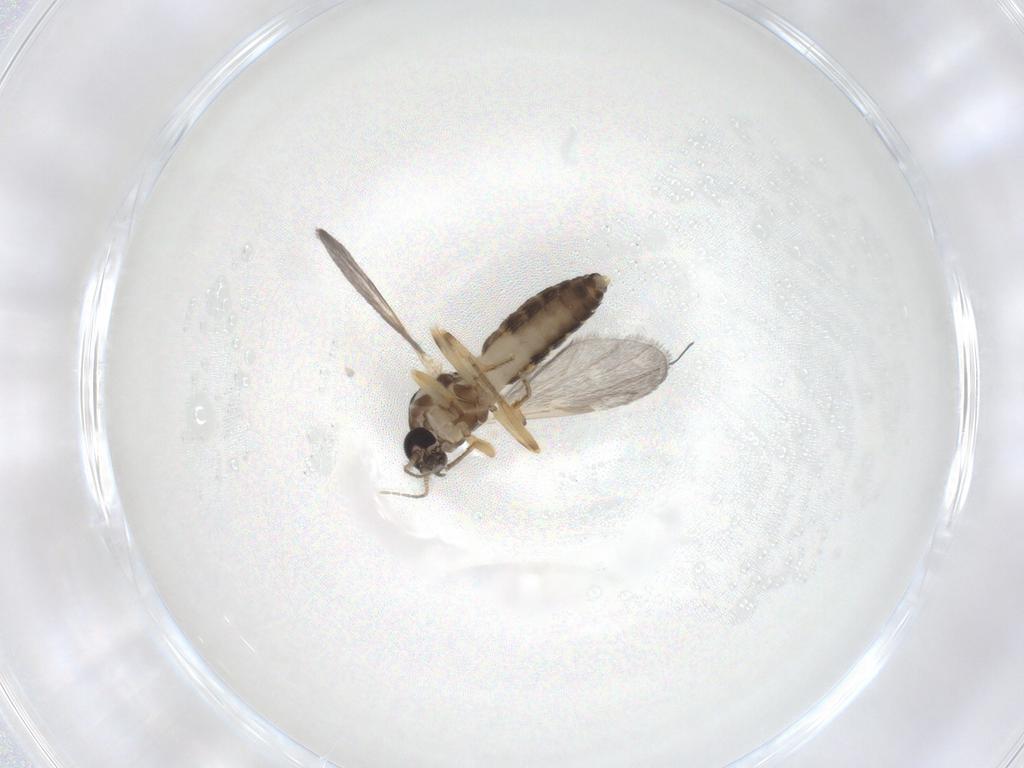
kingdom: Animalia
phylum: Arthropoda
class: Insecta
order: Diptera
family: Ceratopogonidae
